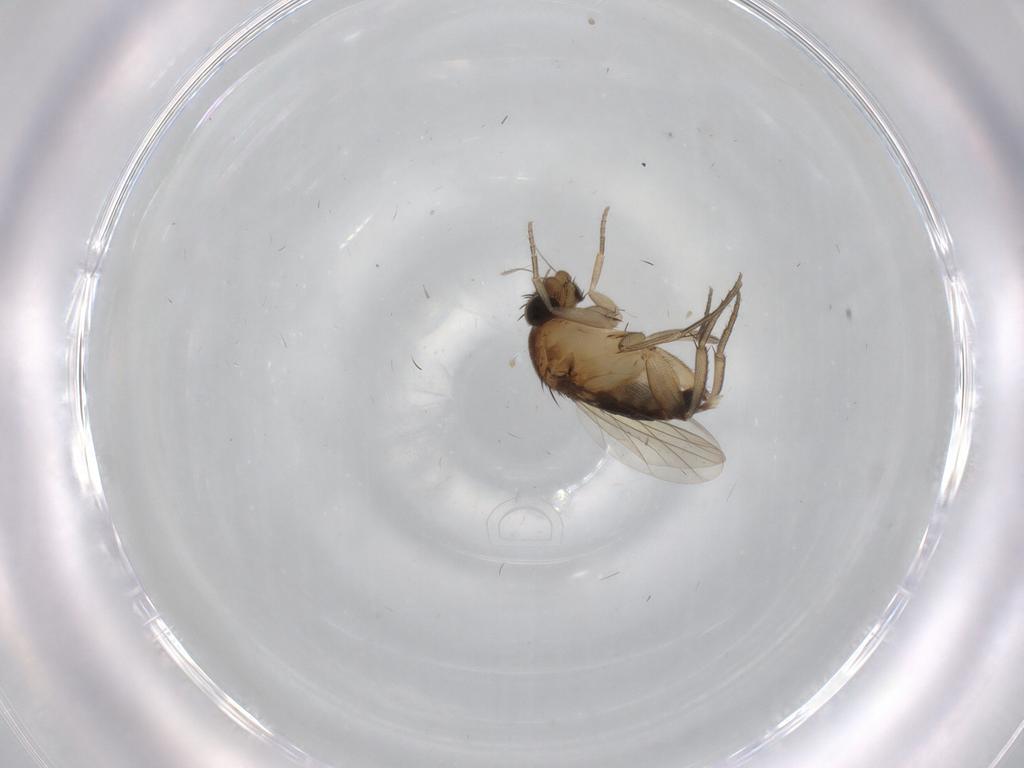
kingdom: Animalia
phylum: Arthropoda
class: Insecta
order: Diptera
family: Phoridae
